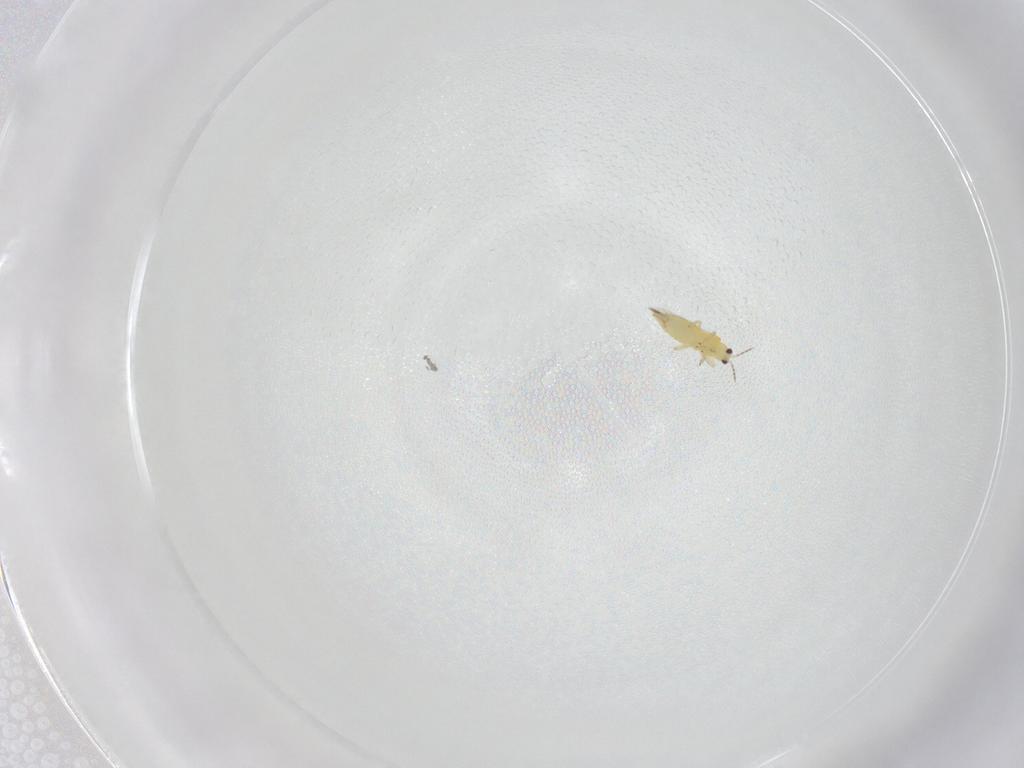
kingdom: Animalia
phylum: Arthropoda
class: Insecta
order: Thysanoptera
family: Thripidae
